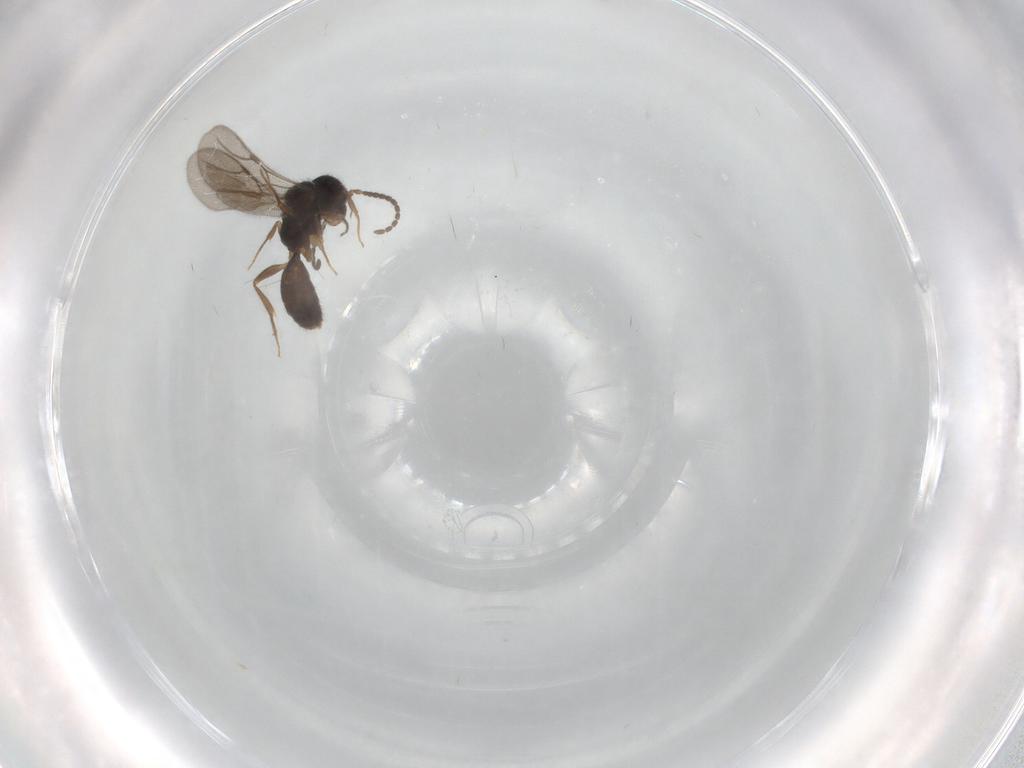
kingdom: Animalia
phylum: Arthropoda
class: Insecta
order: Hymenoptera
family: Bethylidae
